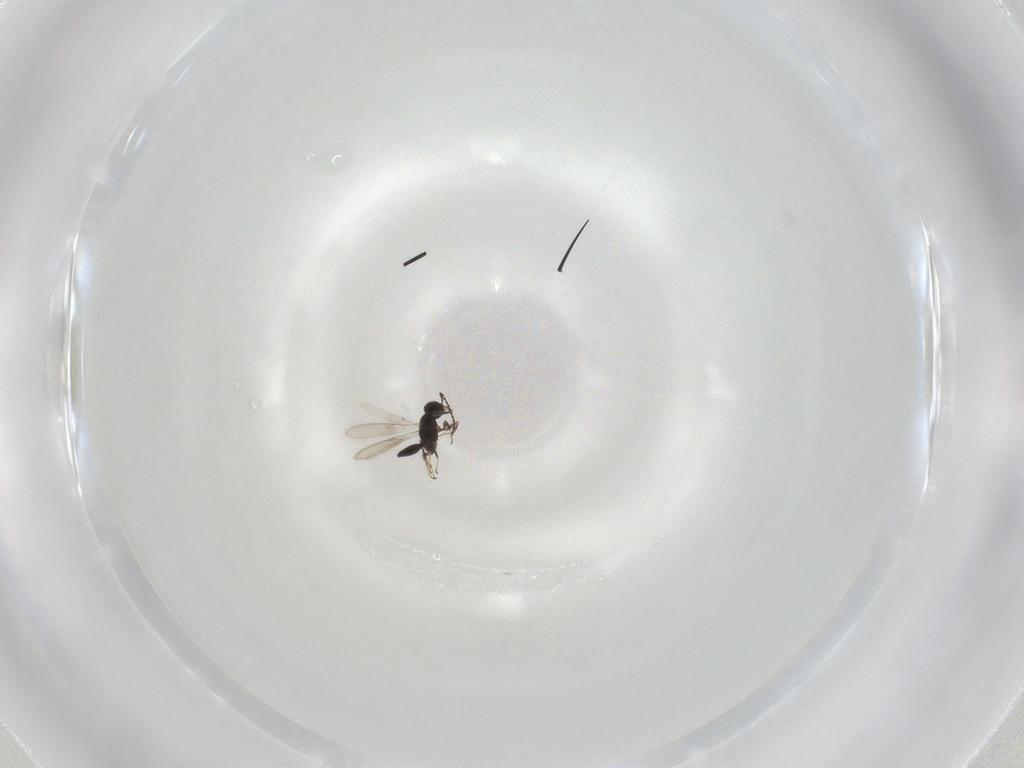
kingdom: Animalia
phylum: Arthropoda
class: Insecta
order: Hymenoptera
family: Scelionidae
